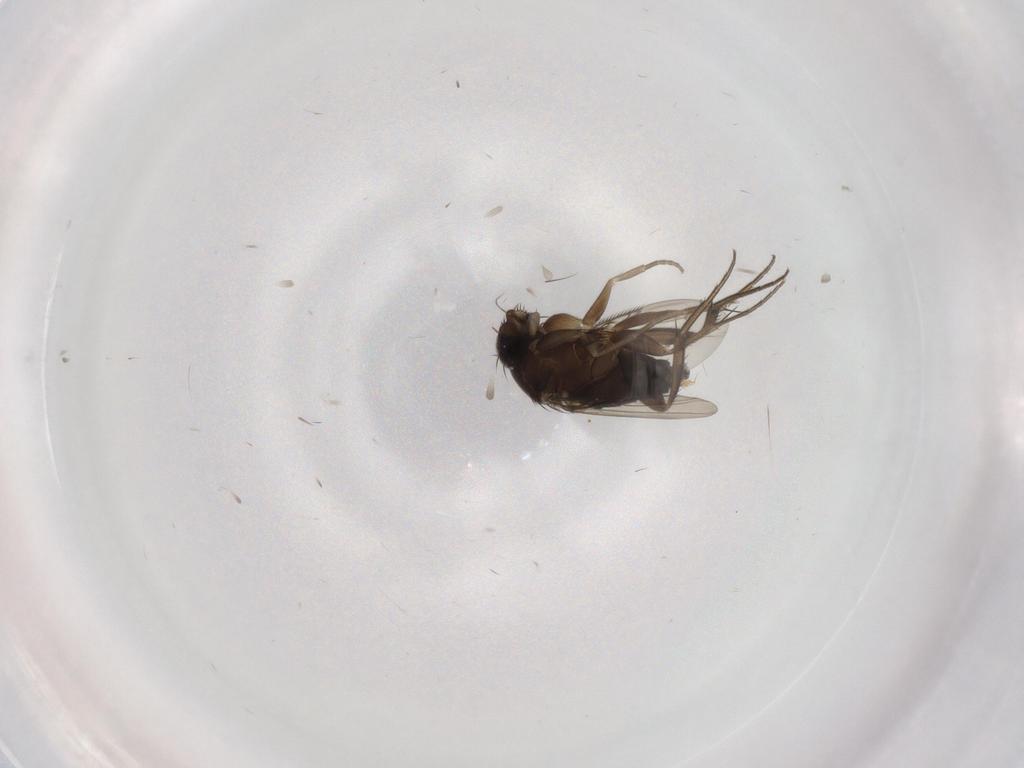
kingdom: Animalia
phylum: Arthropoda
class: Insecta
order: Diptera
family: Phoridae
